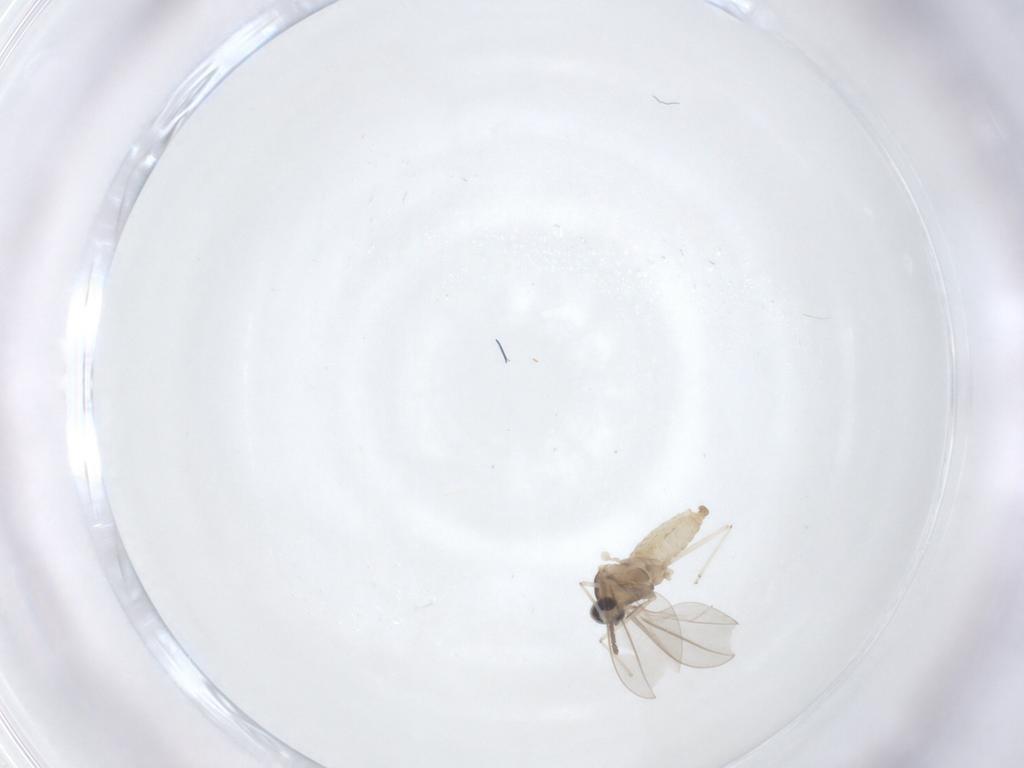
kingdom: Animalia
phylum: Arthropoda
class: Insecta
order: Diptera
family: Cecidomyiidae
